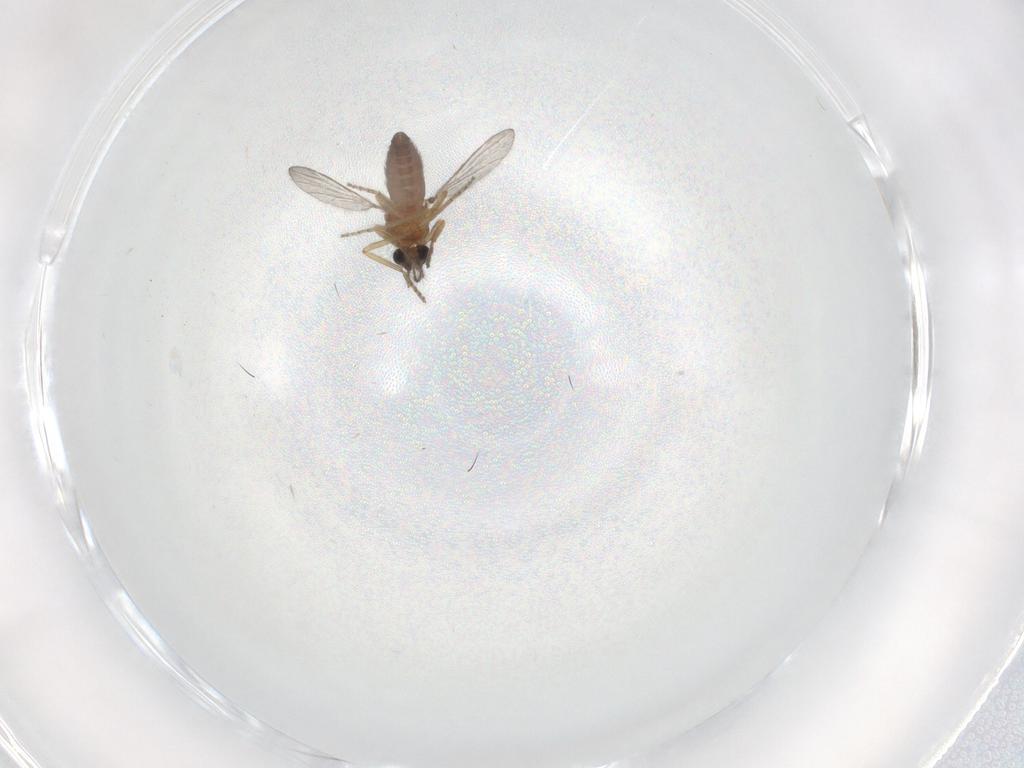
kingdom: Animalia
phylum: Arthropoda
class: Insecta
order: Diptera
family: Ceratopogonidae
